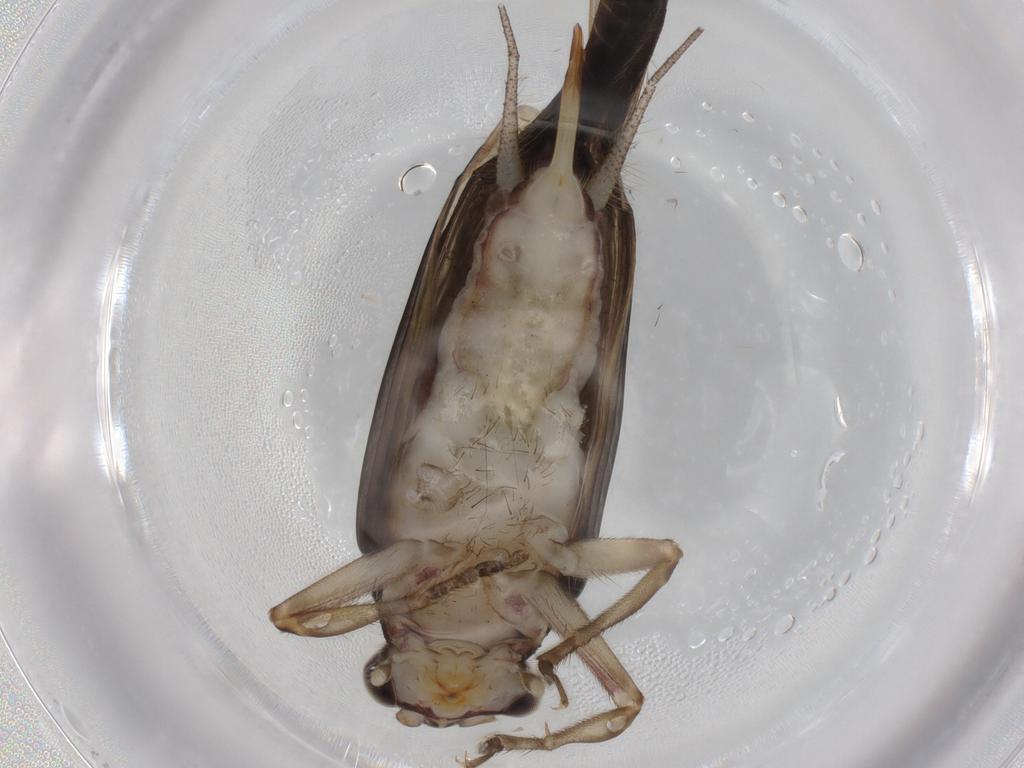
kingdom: Animalia
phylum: Arthropoda
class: Insecta
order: Orthoptera
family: Trigonidiidae
